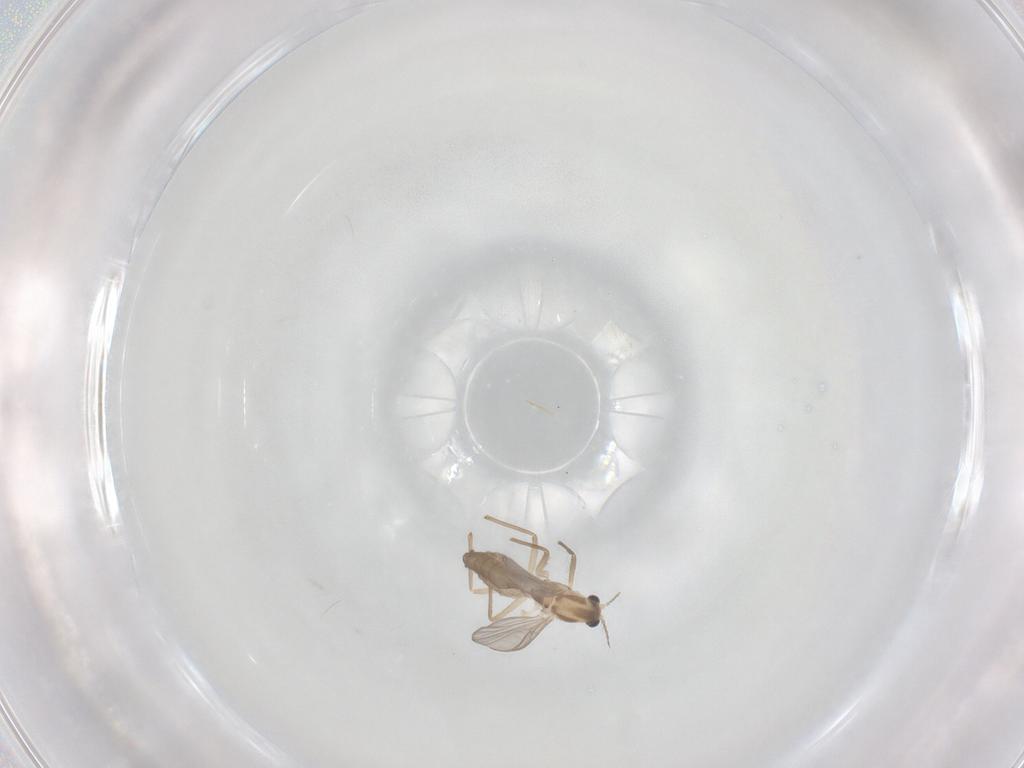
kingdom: Animalia
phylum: Arthropoda
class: Insecta
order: Diptera
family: Chironomidae
